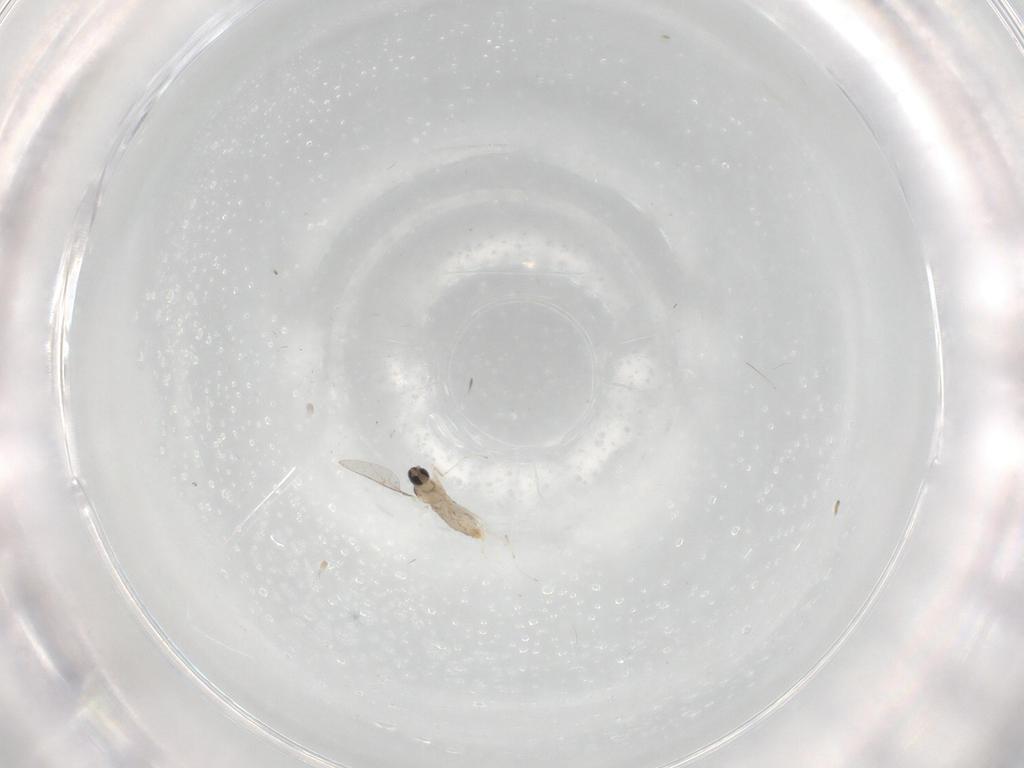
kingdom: Animalia
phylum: Arthropoda
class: Insecta
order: Diptera
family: Cecidomyiidae
